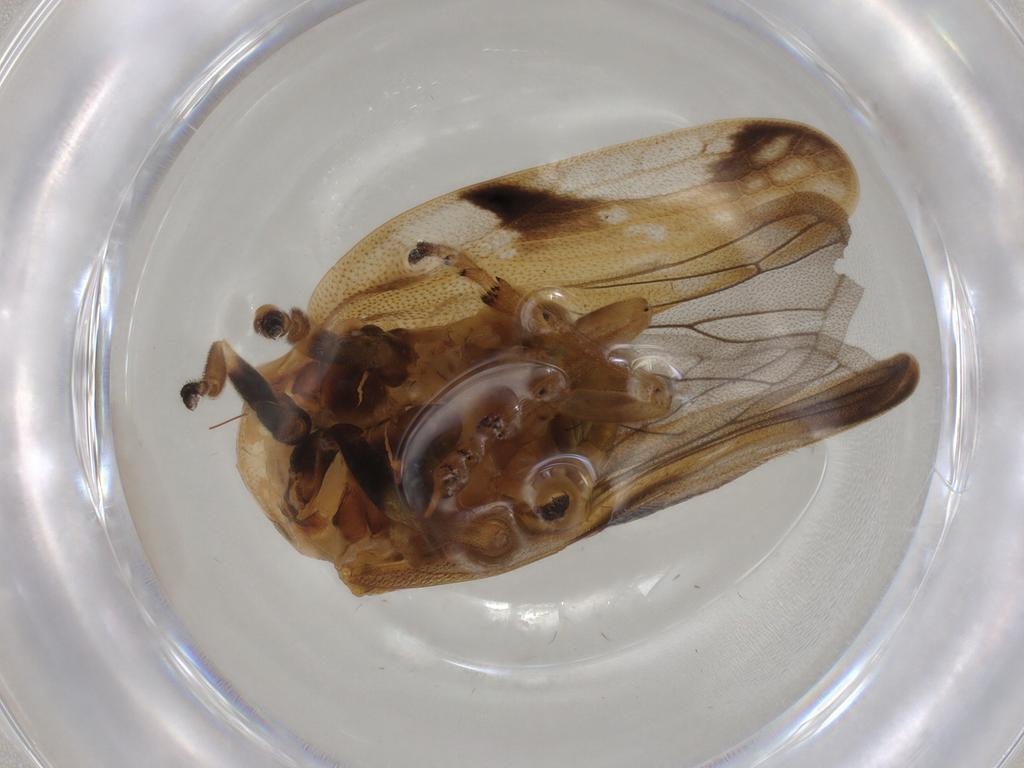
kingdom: Animalia
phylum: Arthropoda
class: Insecta
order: Hemiptera
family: Aphrophoridae
